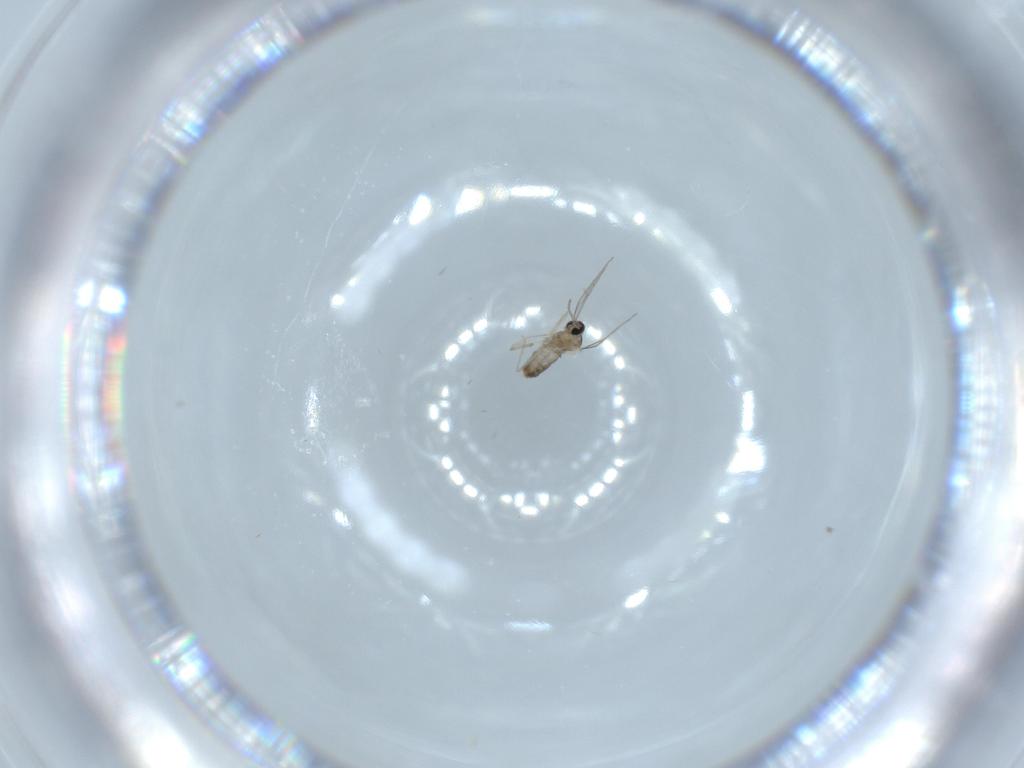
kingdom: Animalia
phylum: Arthropoda
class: Insecta
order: Diptera
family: Cecidomyiidae
